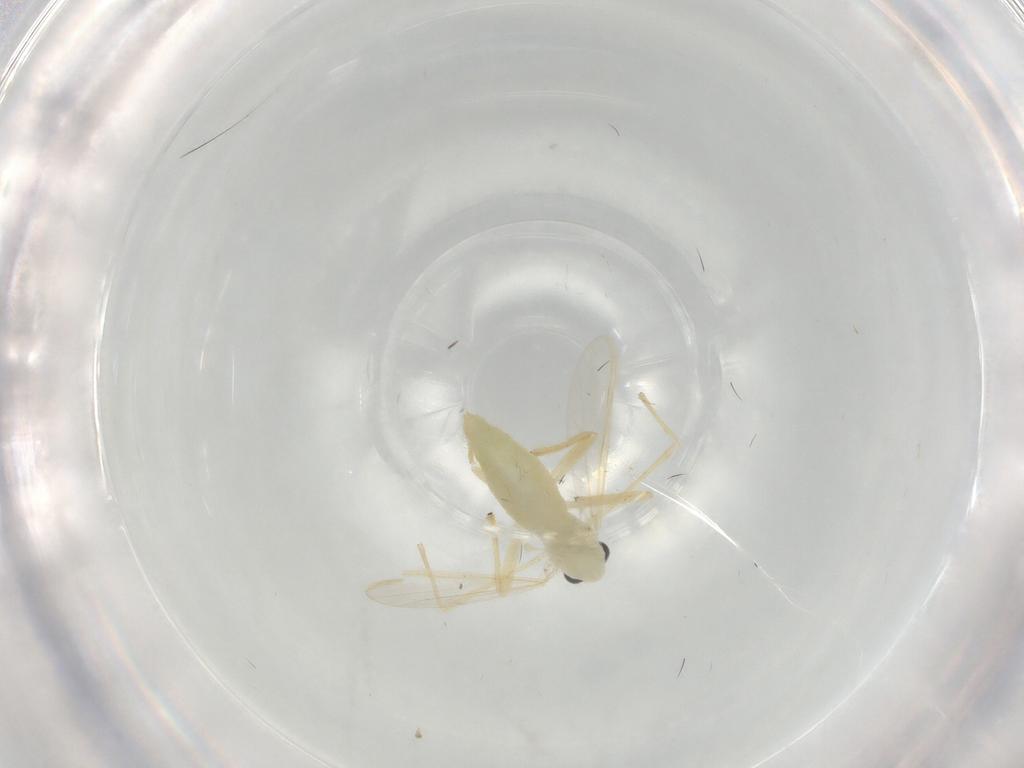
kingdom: Animalia
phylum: Arthropoda
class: Insecta
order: Diptera
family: Chironomidae
